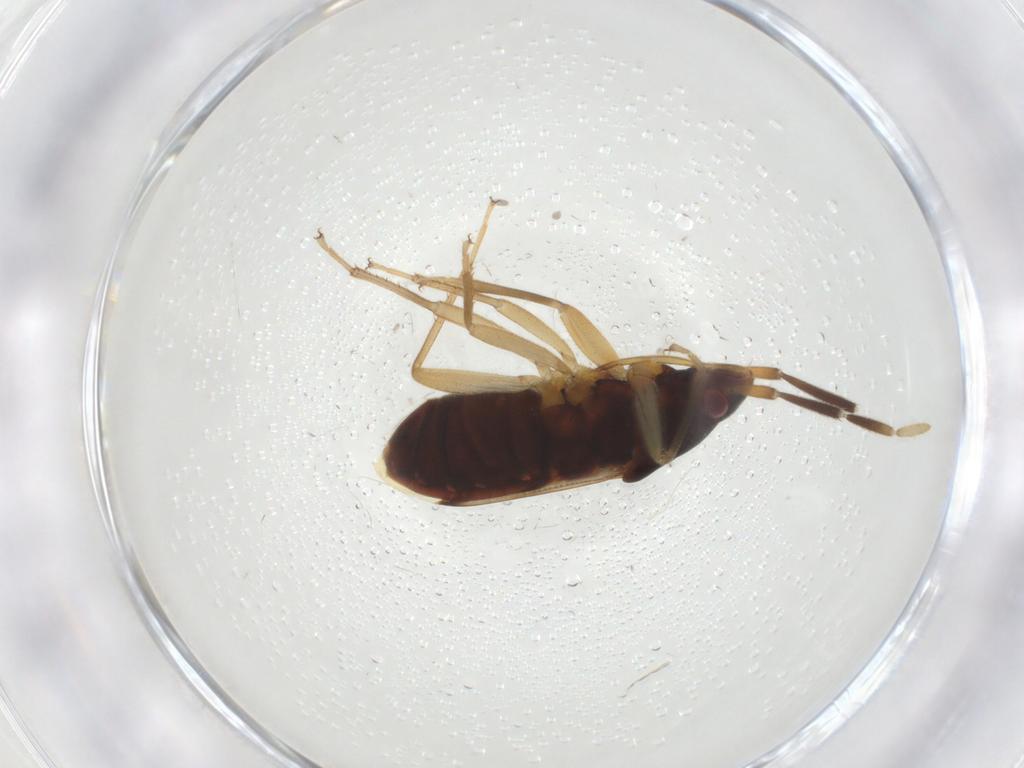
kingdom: Animalia
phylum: Arthropoda
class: Insecta
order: Hemiptera
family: Rhyparochromidae
